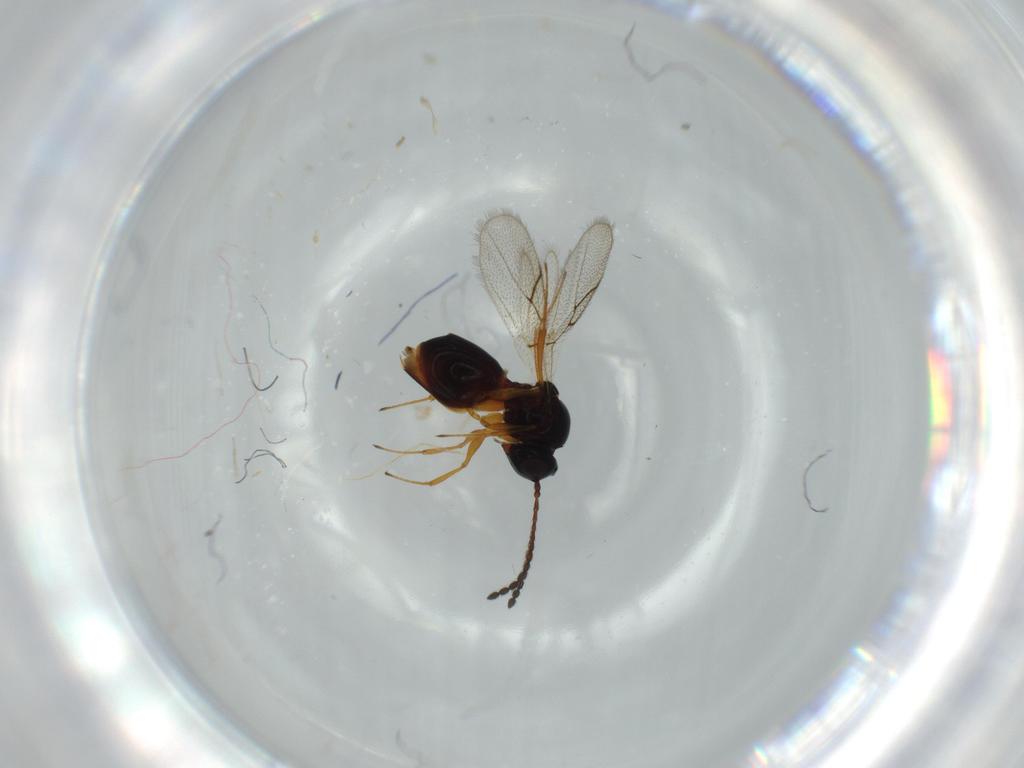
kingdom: Animalia
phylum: Arthropoda
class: Insecta
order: Hymenoptera
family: Figitidae
